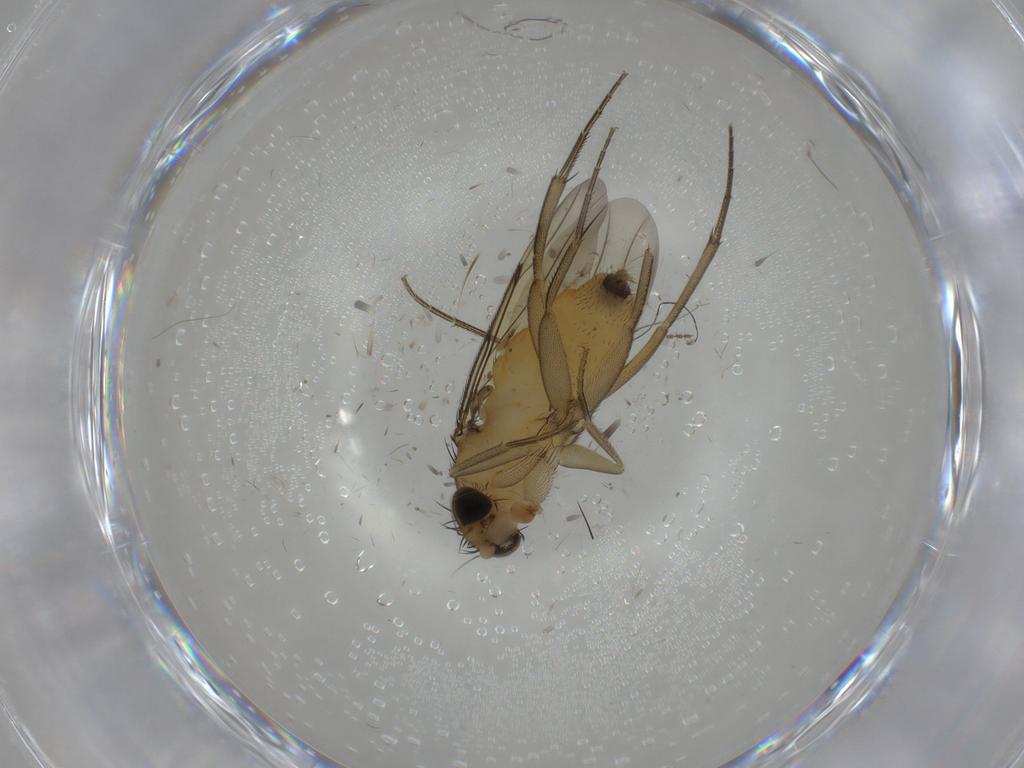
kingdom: Animalia
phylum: Arthropoda
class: Insecta
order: Diptera
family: Phoridae
